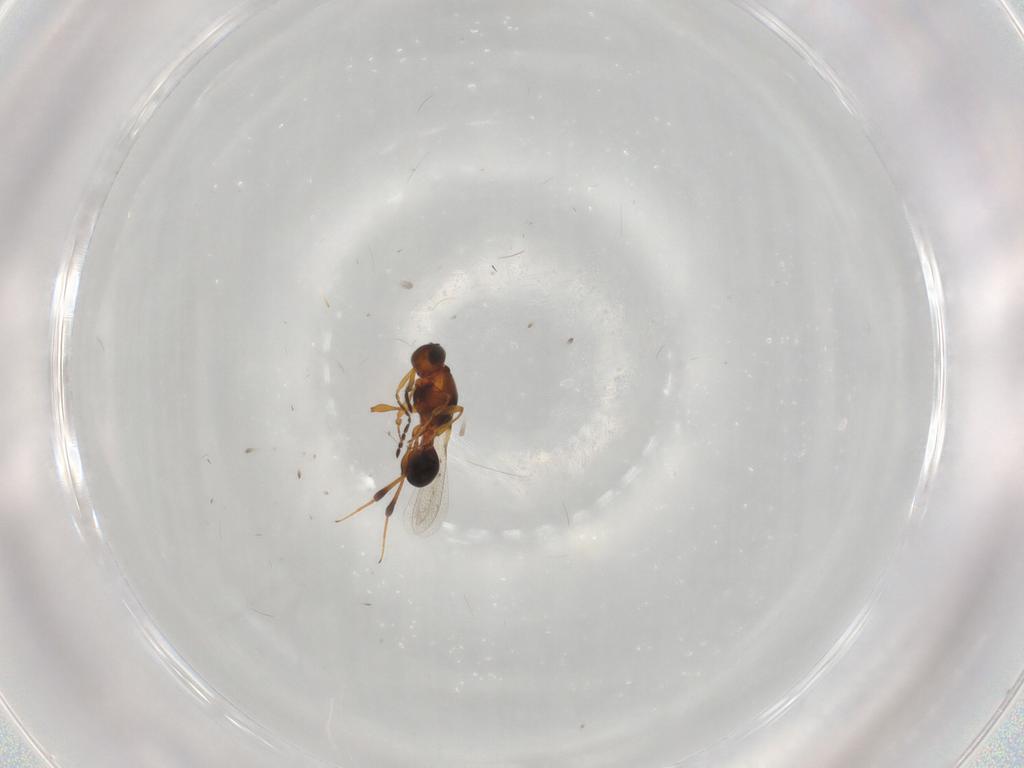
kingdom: Animalia
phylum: Arthropoda
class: Insecta
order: Hymenoptera
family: Platygastridae
